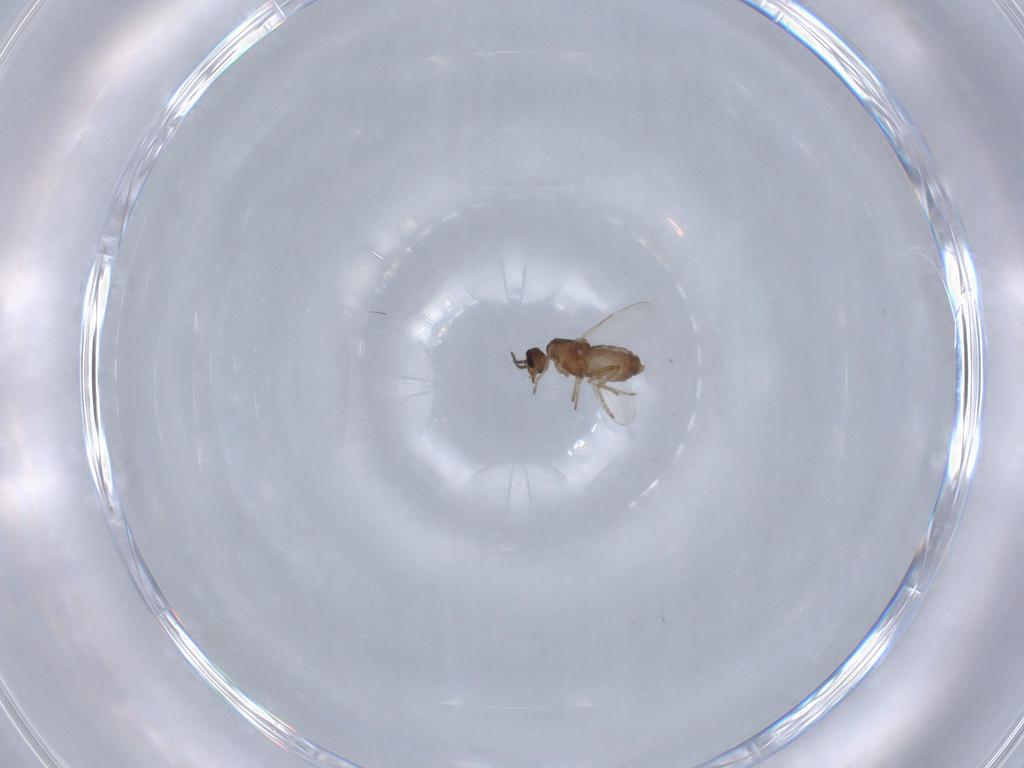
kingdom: Animalia
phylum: Arthropoda
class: Insecta
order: Diptera
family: Ceratopogonidae
